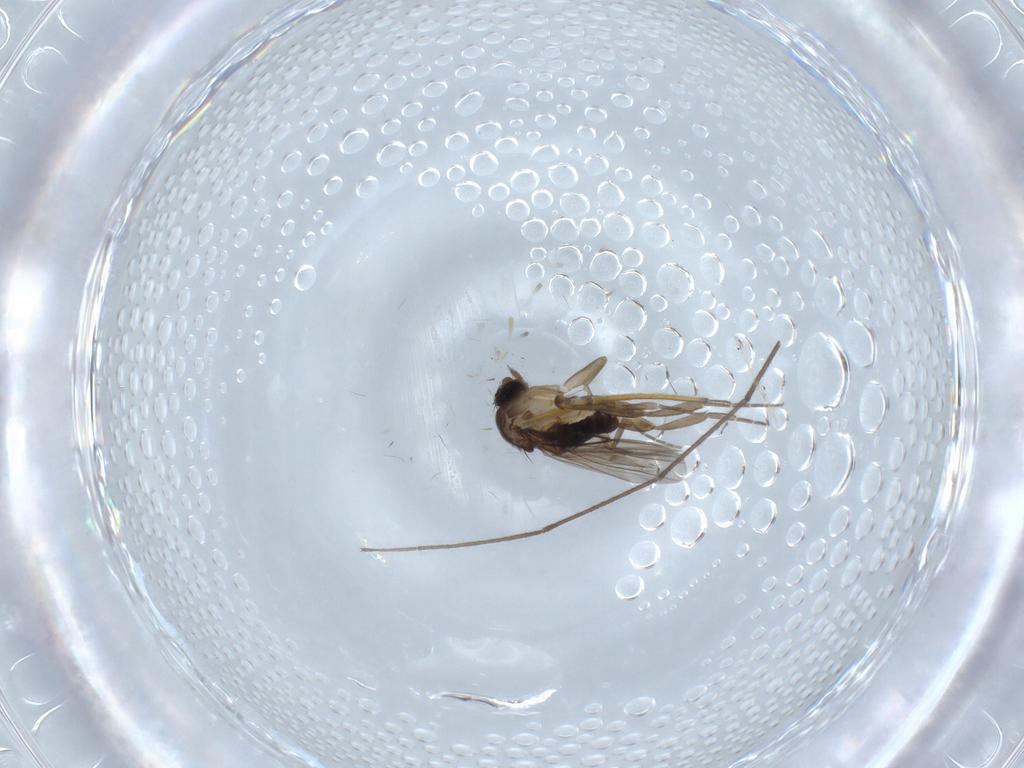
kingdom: Animalia
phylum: Arthropoda
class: Insecta
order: Diptera
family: Phoridae
